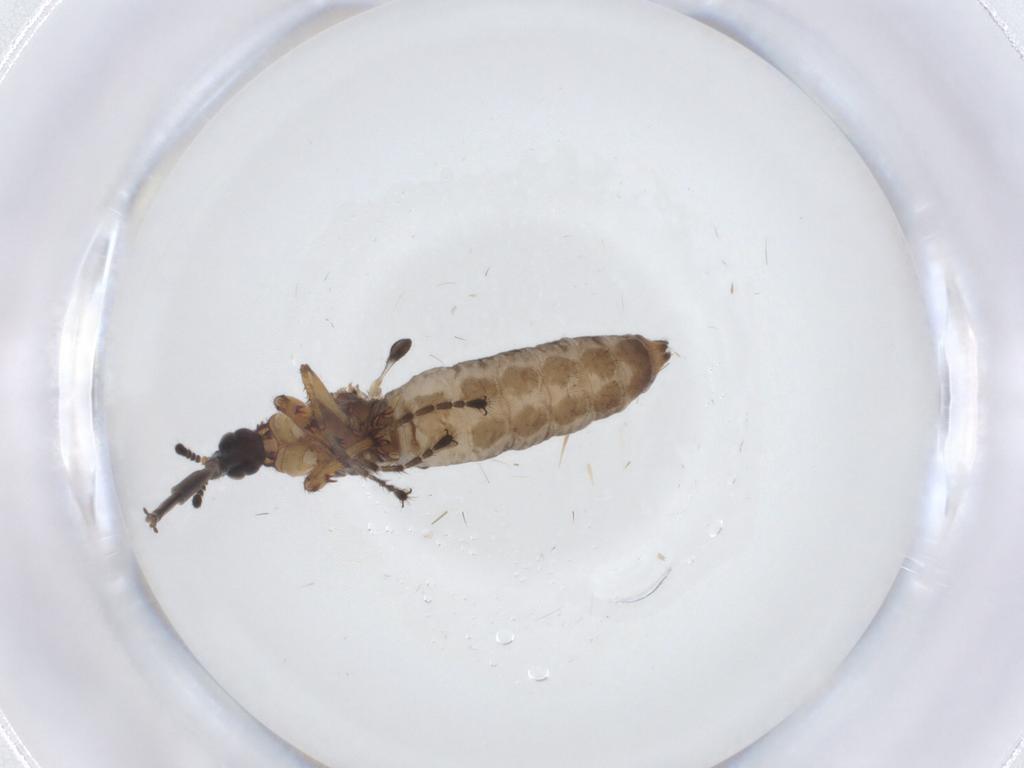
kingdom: Animalia
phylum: Arthropoda
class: Insecta
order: Diptera
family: Bibionidae
